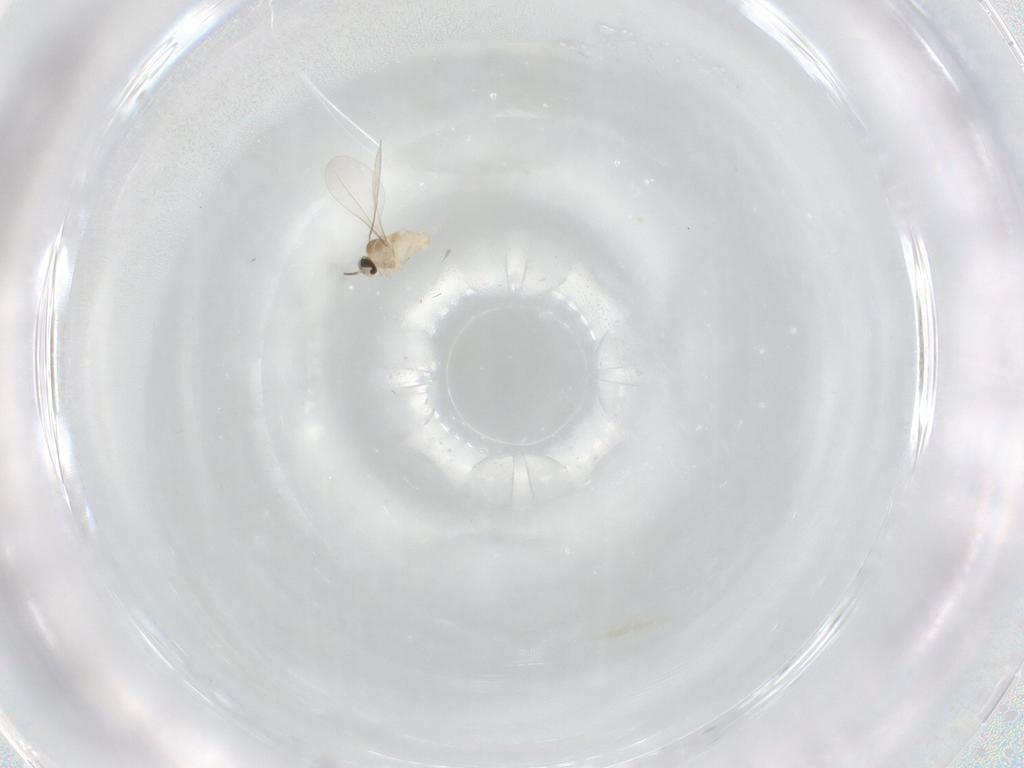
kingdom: Animalia
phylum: Arthropoda
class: Insecta
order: Diptera
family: Cecidomyiidae
